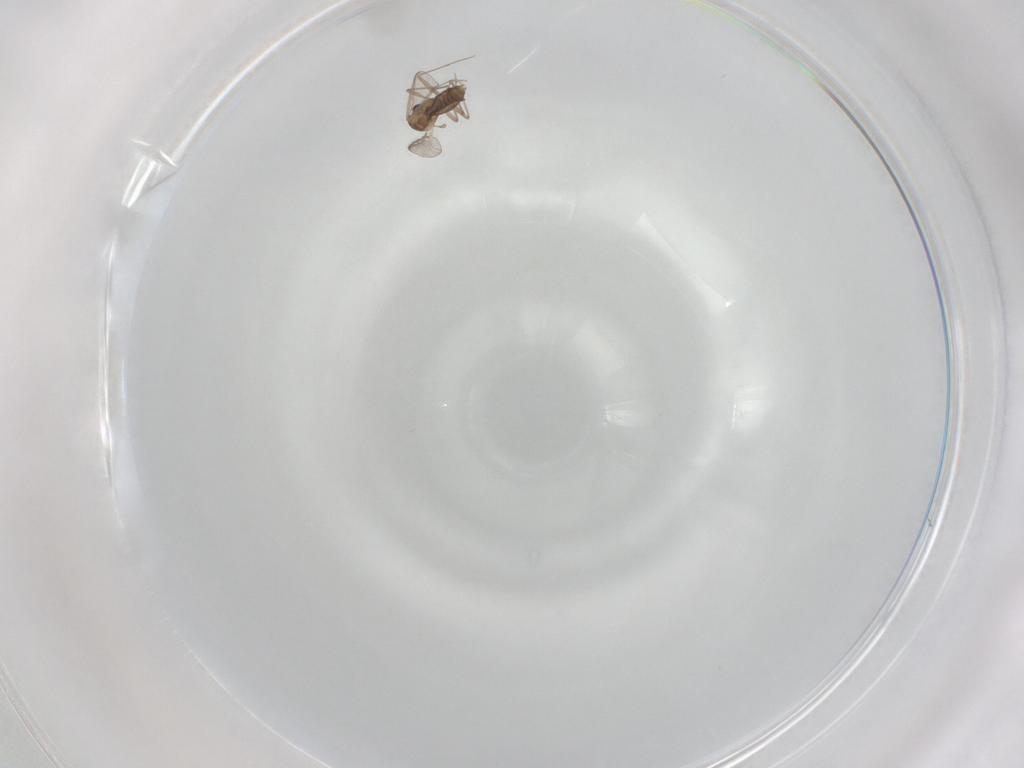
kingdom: Animalia
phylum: Arthropoda
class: Insecta
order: Diptera
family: Chironomidae
